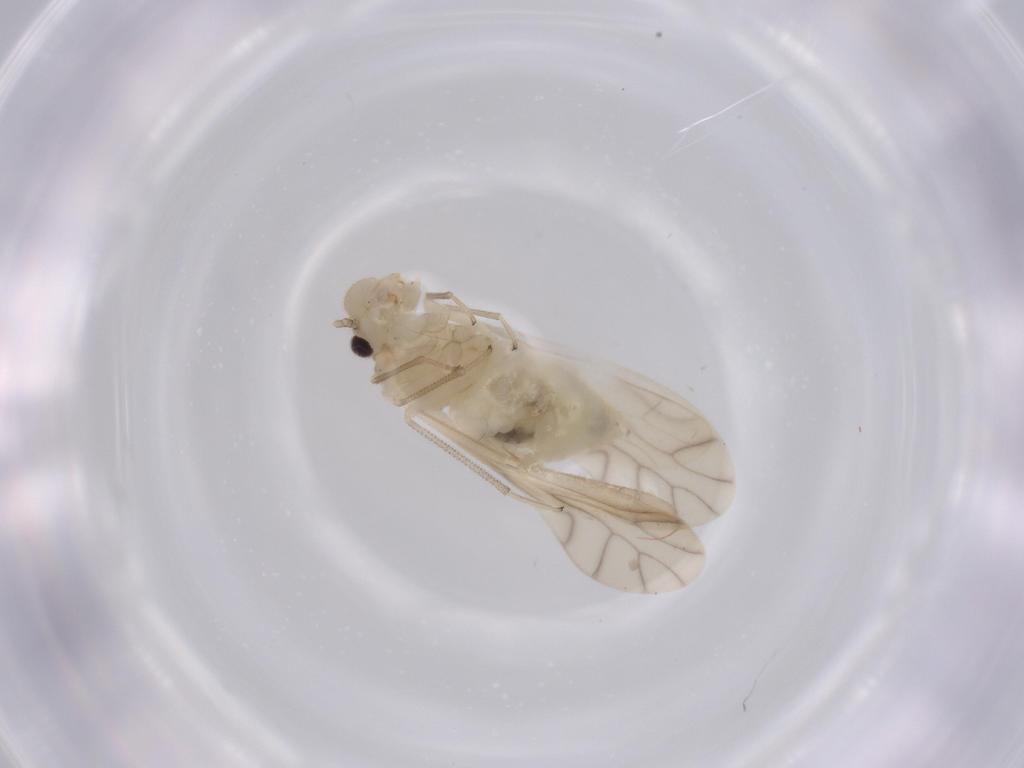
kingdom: Animalia
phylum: Arthropoda
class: Insecta
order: Psocodea
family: Caeciliusidae
